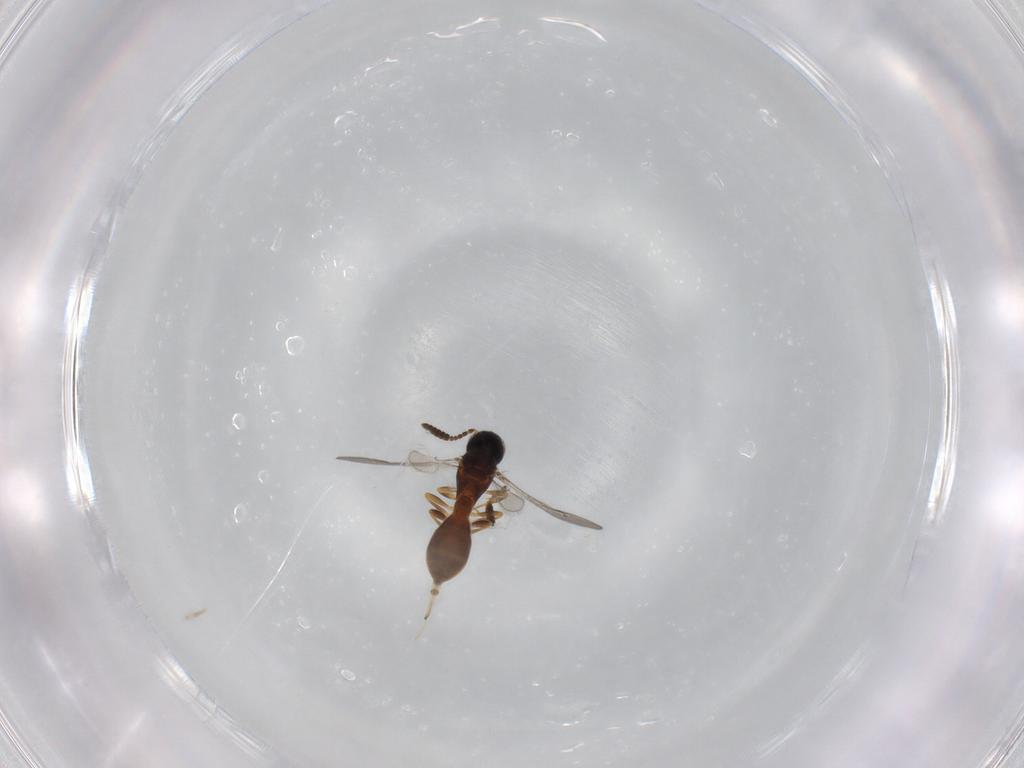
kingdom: Animalia
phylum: Arthropoda
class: Insecta
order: Hymenoptera
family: Scelionidae
